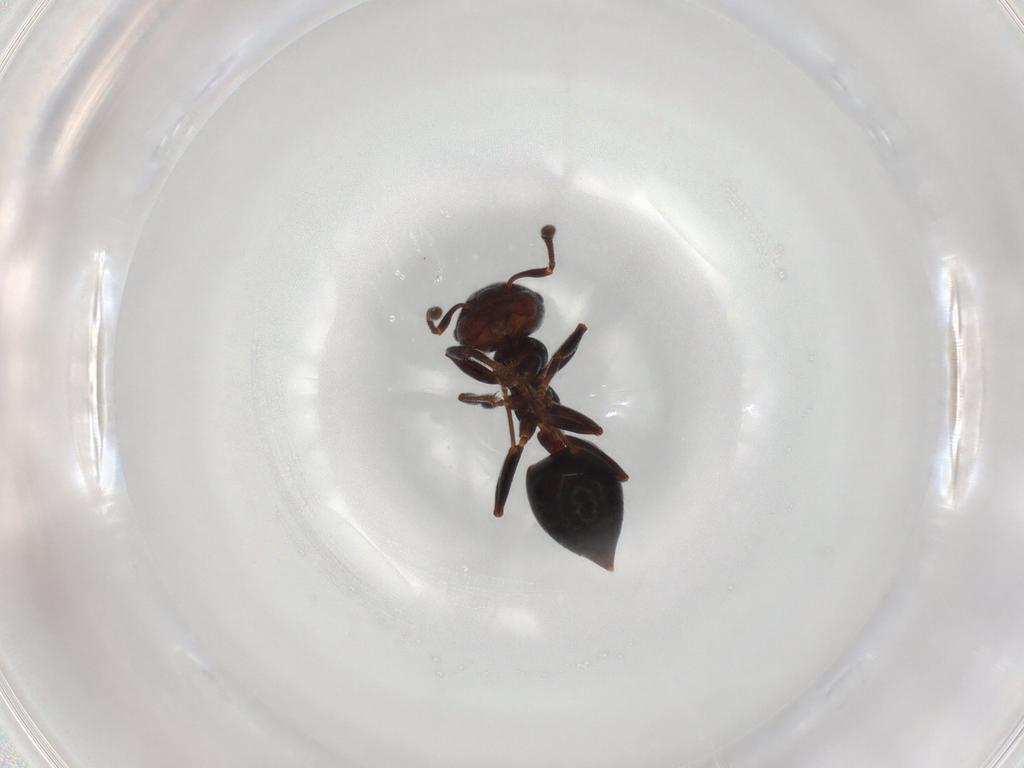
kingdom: Animalia
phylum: Arthropoda
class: Insecta
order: Hymenoptera
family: Formicidae
